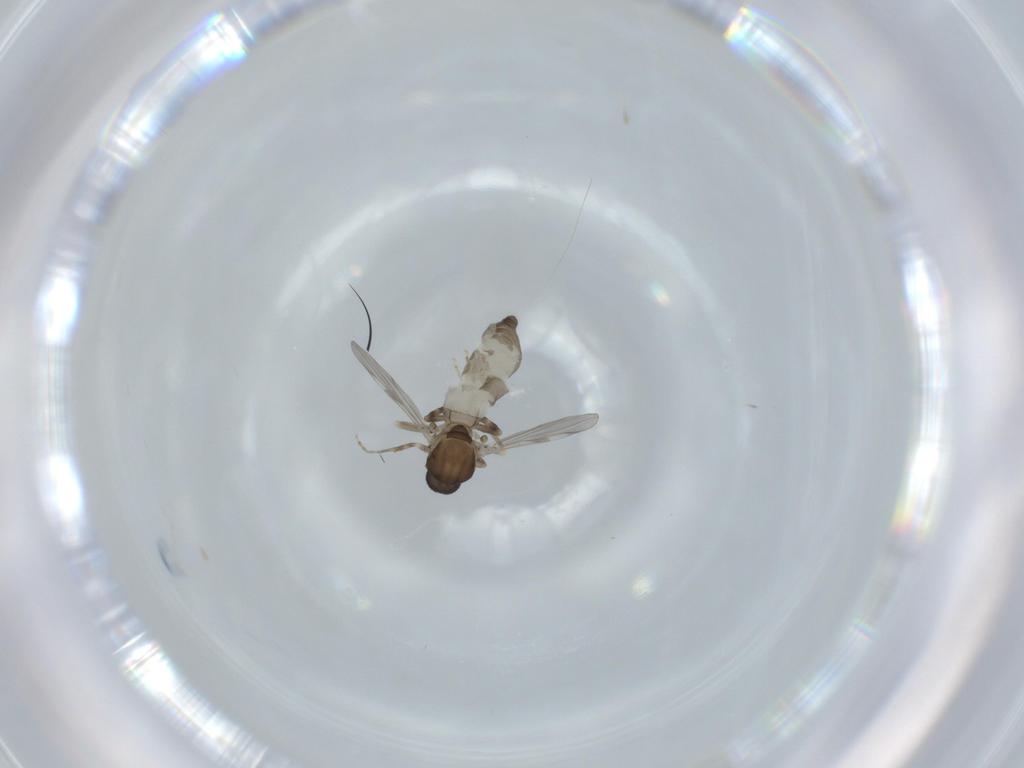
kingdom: Animalia
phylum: Arthropoda
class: Insecta
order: Diptera
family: Ceratopogonidae
